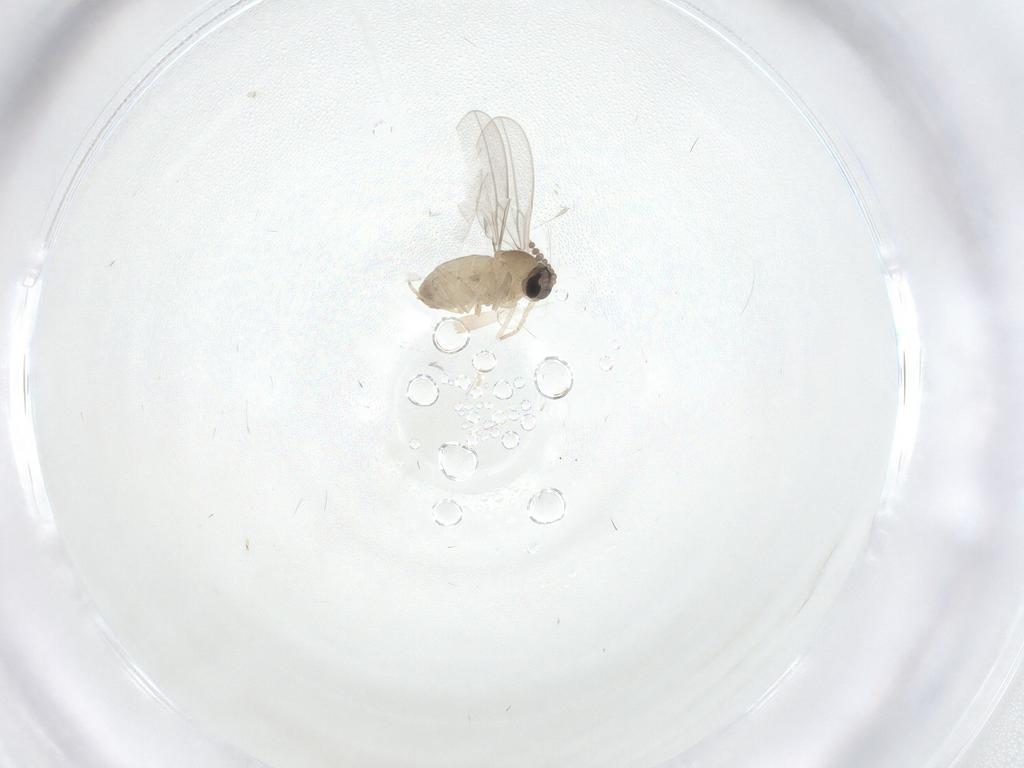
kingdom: Animalia
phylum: Arthropoda
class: Insecta
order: Diptera
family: Cecidomyiidae
